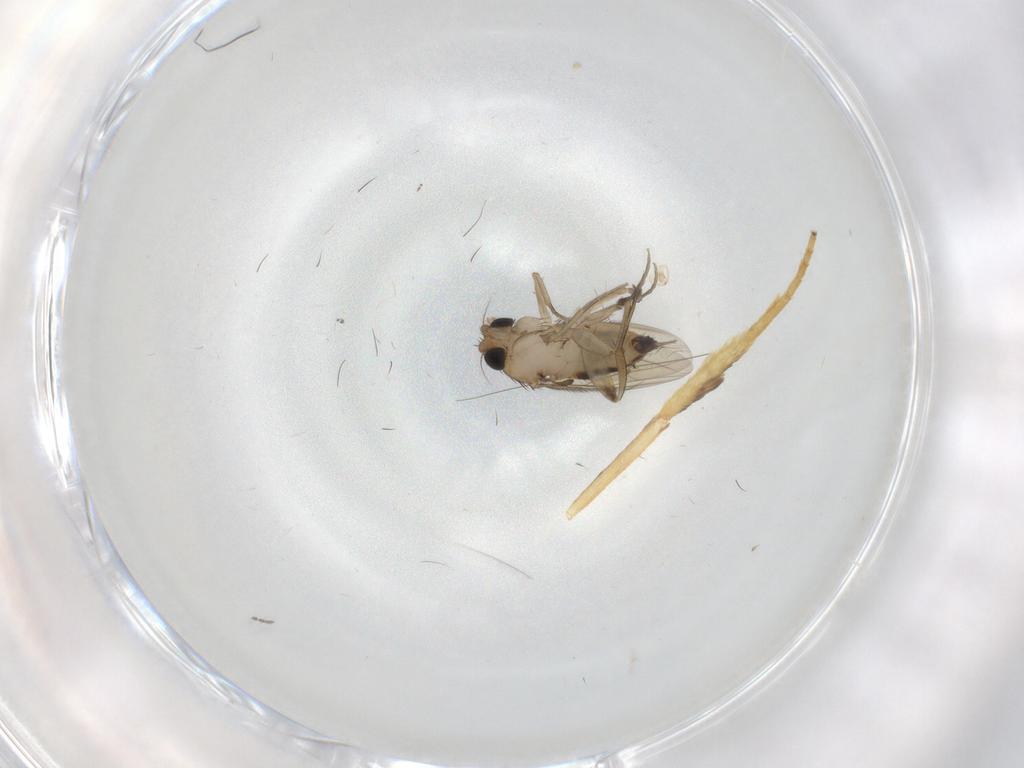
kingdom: Animalia
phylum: Arthropoda
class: Insecta
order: Diptera
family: Phoridae
